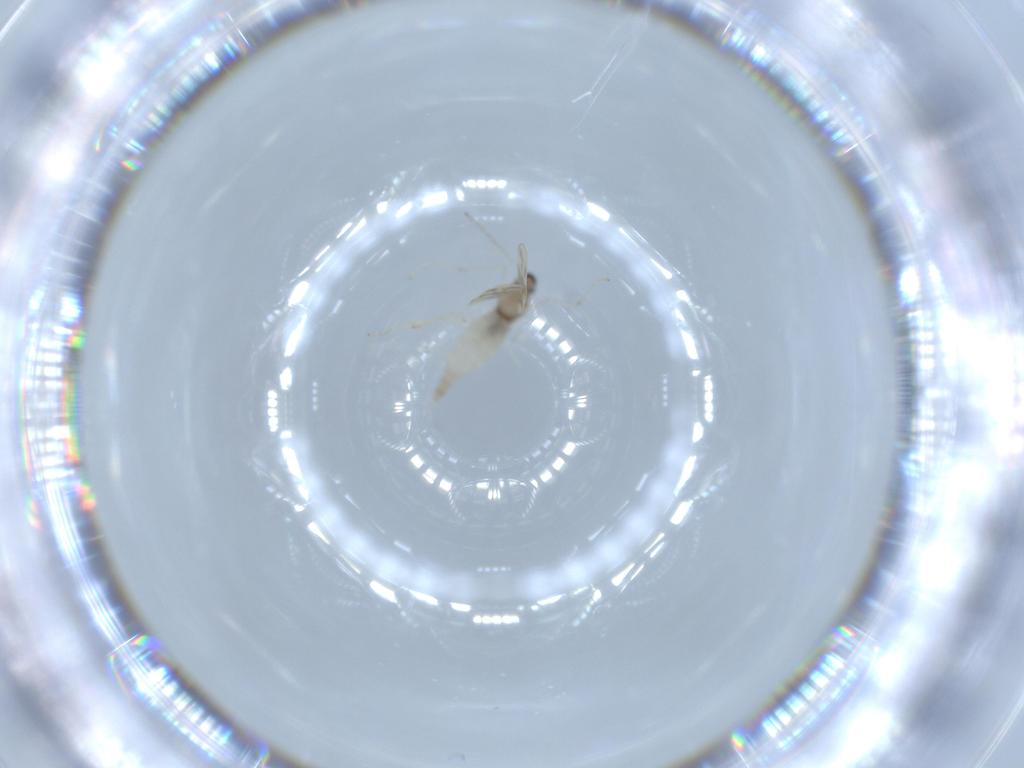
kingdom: Animalia
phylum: Arthropoda
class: Insecta
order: Diptera
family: Cecidomyiidae
